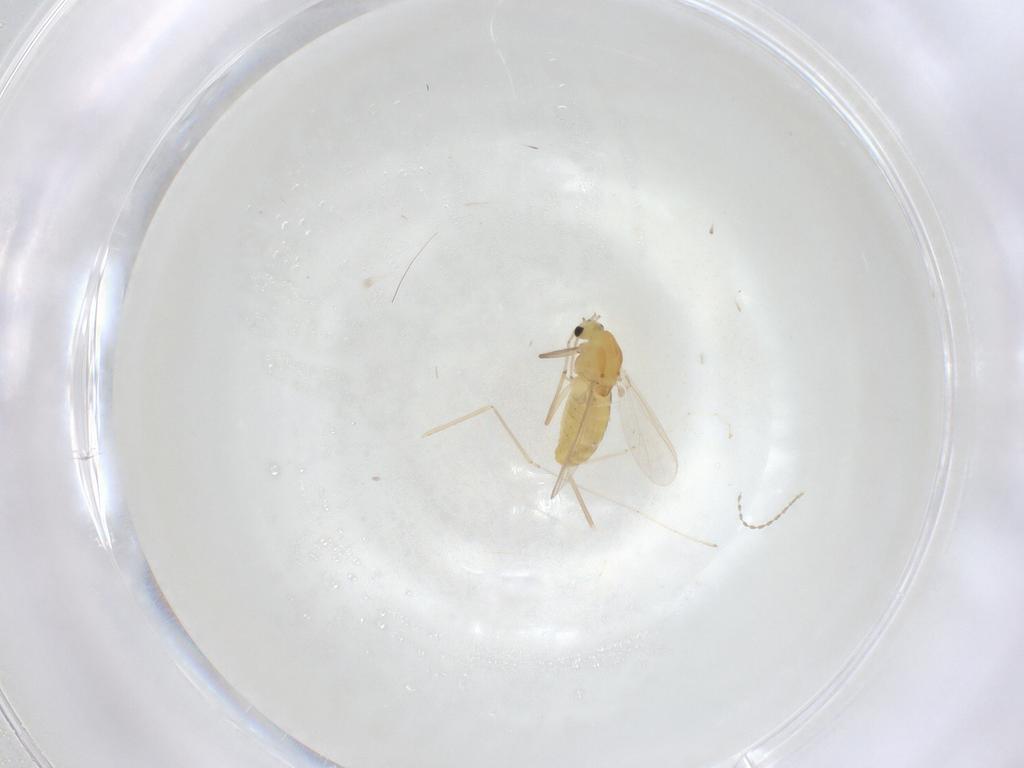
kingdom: Animalia
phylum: Arthropoda
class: Insecta
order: Diptera
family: Chironomidae
